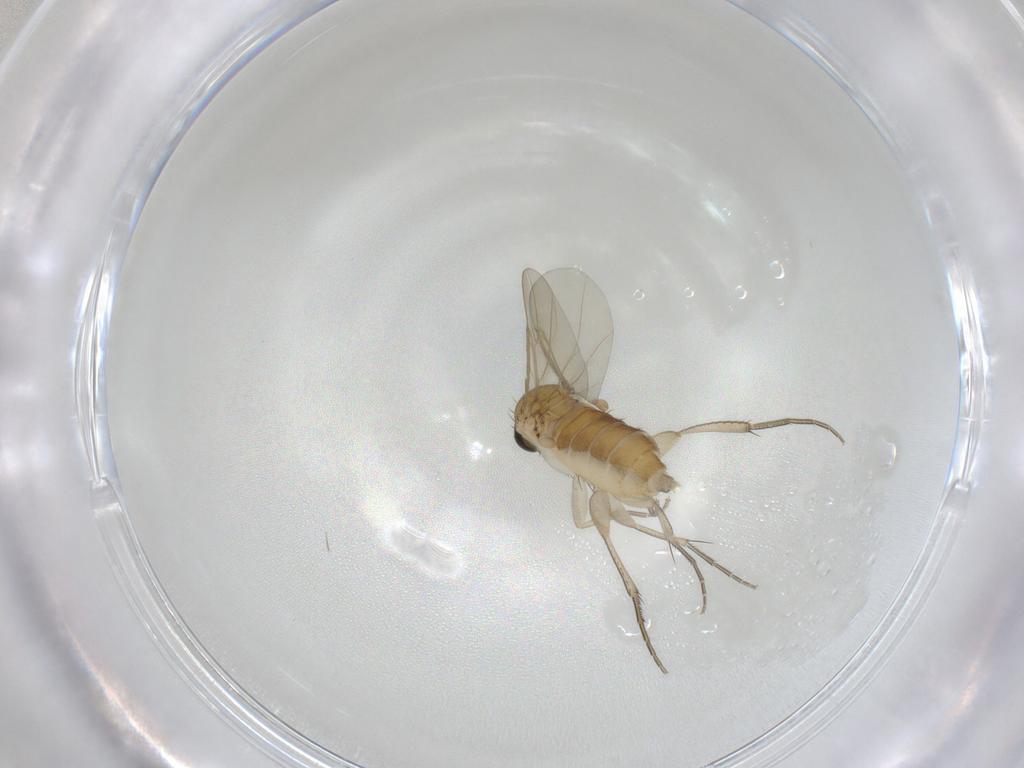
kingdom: Animalia
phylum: Arthropoda
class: Insecta
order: Diptera
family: Phoridae
